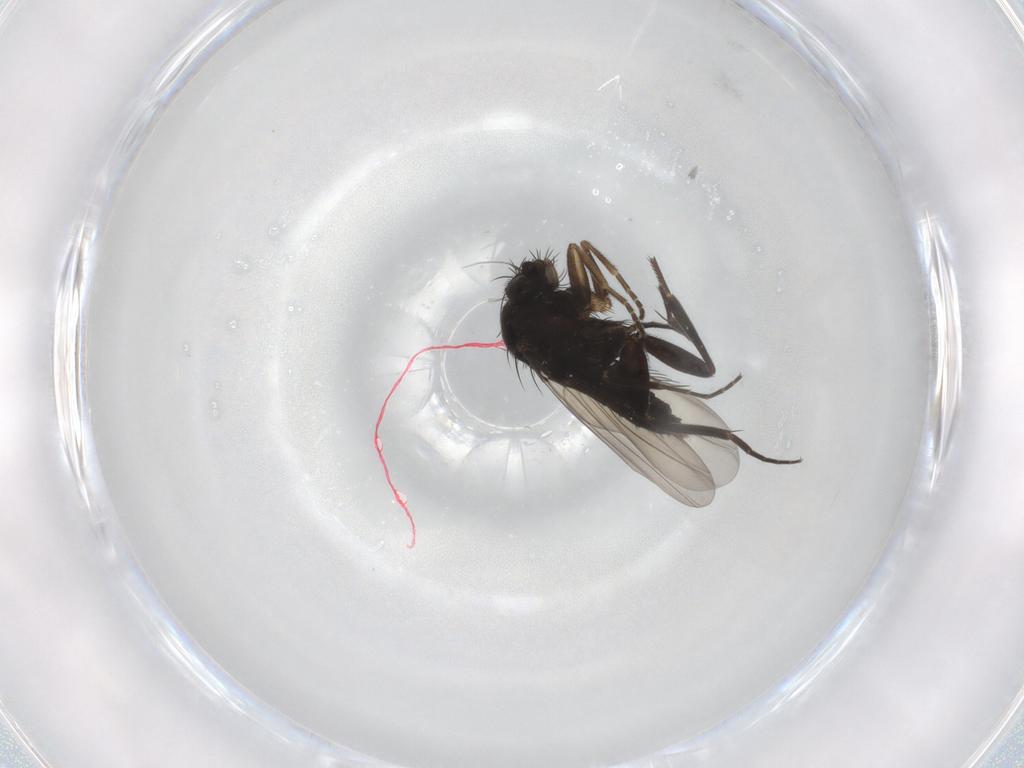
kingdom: Animalia
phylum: Arthropoda
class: Insecta
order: Diptera
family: Phoridae
